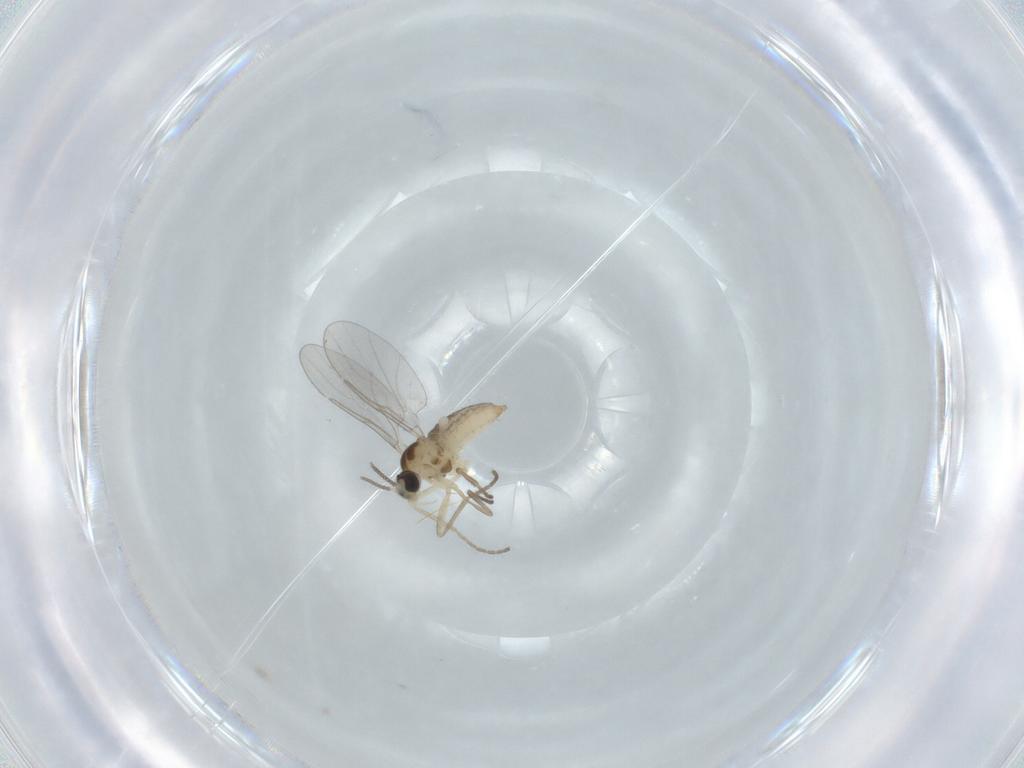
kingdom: Animalia
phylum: Arthropoda
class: Insecta
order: Diptera
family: Cecidomyiidae
